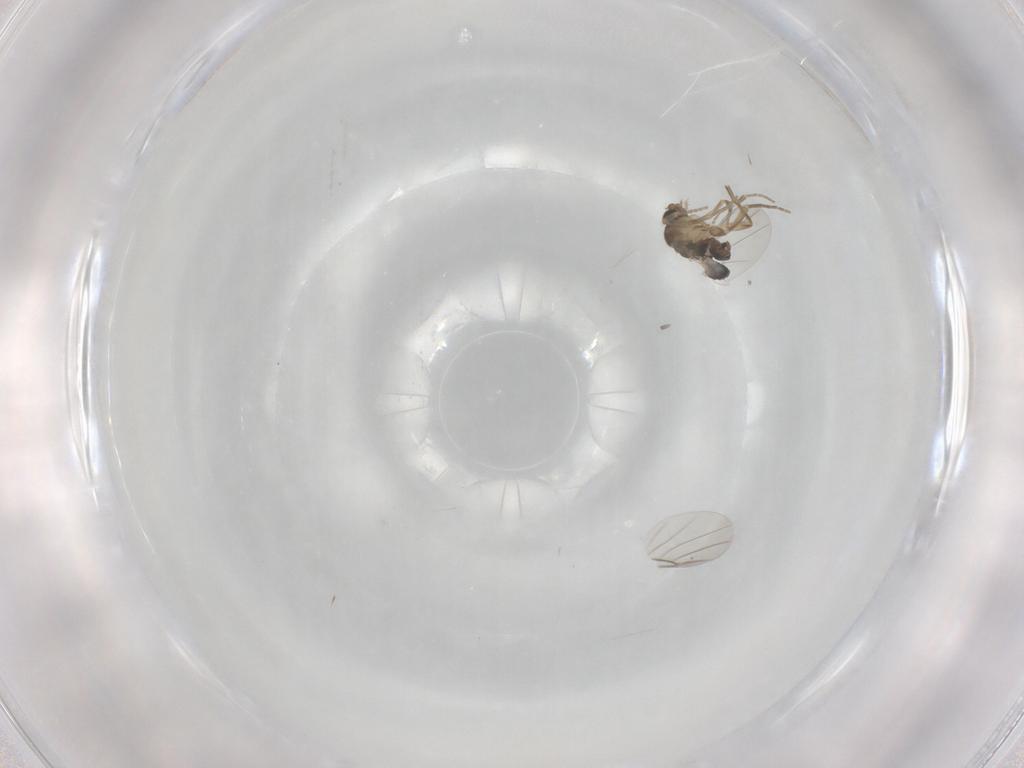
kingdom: Animalia
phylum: Arthropoda
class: Insecta
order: Diptera
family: Phoridae
